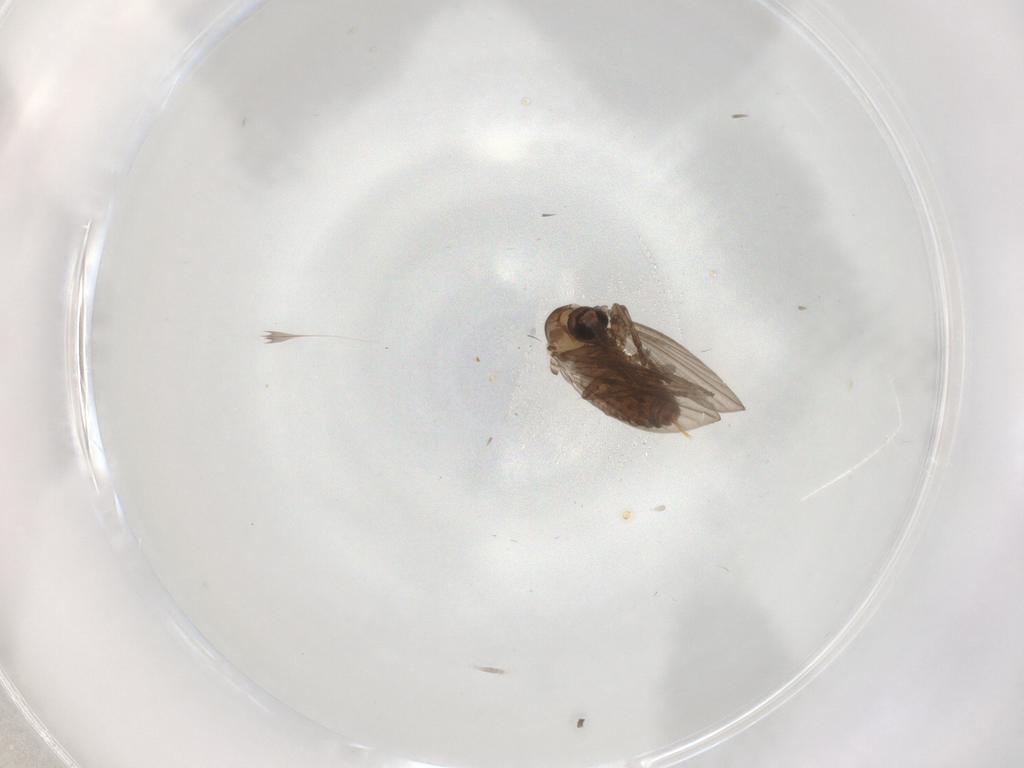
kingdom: Animalia
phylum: Arthropoda
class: Insecta
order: Diptera
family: Psychodidae
